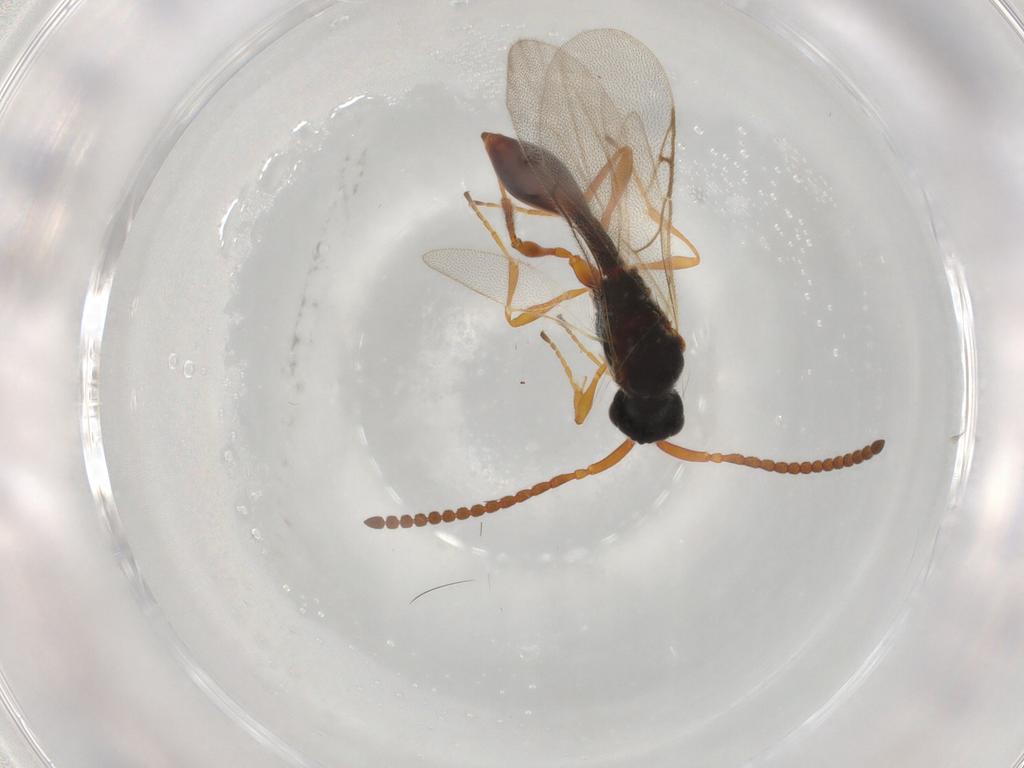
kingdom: Animalia
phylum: Arthropoda
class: Insecta
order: Hymenoptera
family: Diapriidae
